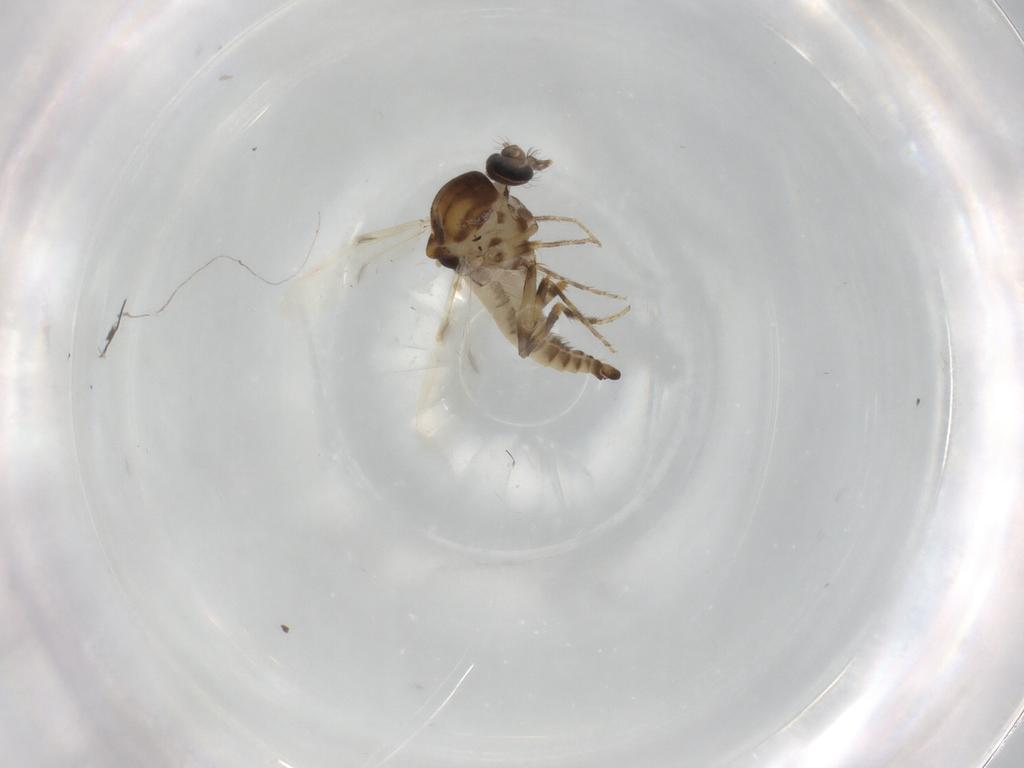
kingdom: Animalia
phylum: Arthropoda
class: Insecta
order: Diptera
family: Ceratopogonidae
